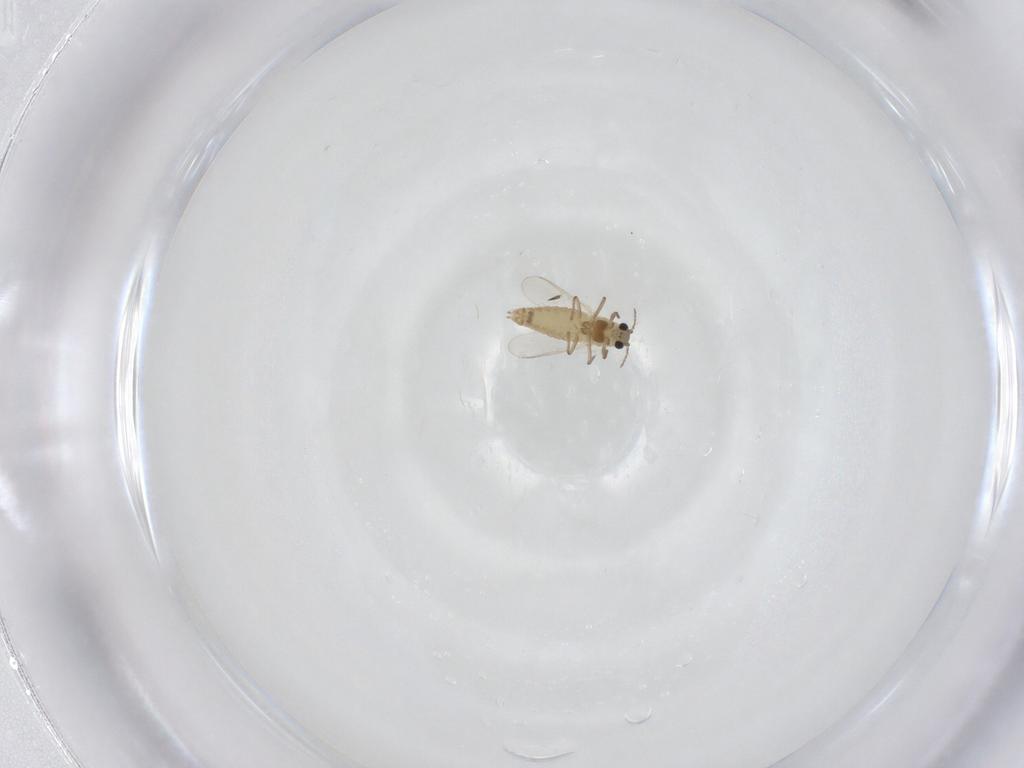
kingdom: Animalia
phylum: Arthropoda
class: Insecta
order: Diptera
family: Chironomidae
